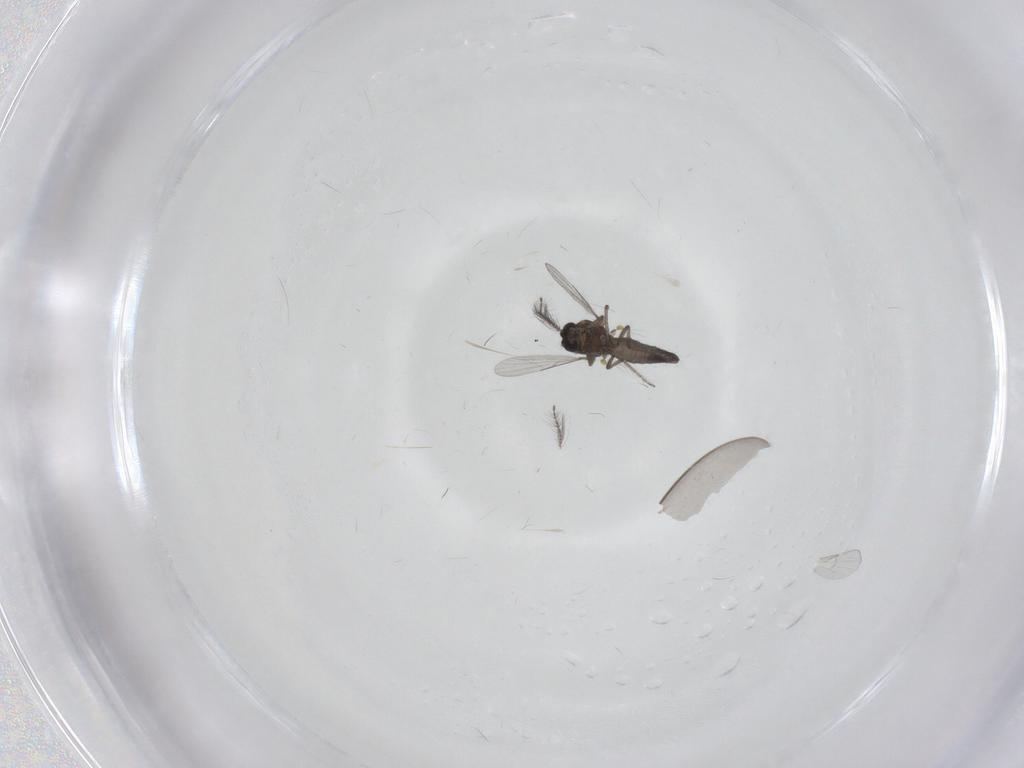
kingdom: Animalia
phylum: Arthropoda
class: Insecta
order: Diptera
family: Cecidomyiidae
